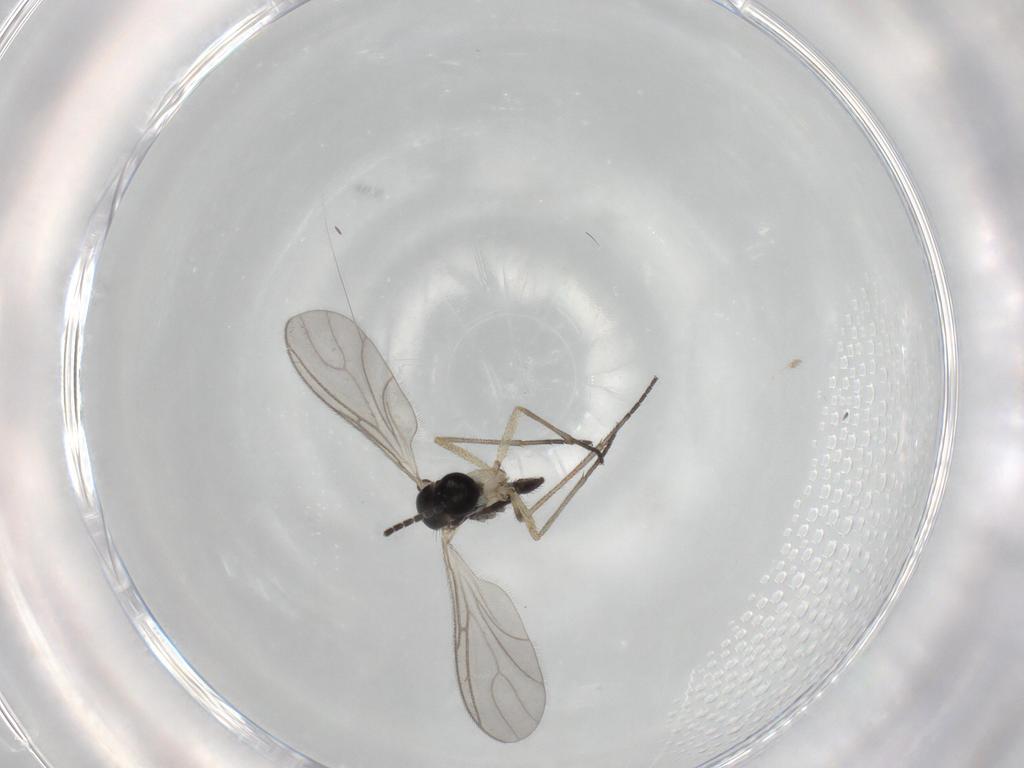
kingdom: Animalia
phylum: Arthropoda
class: Insecta
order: Diptera
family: Sciaridae
